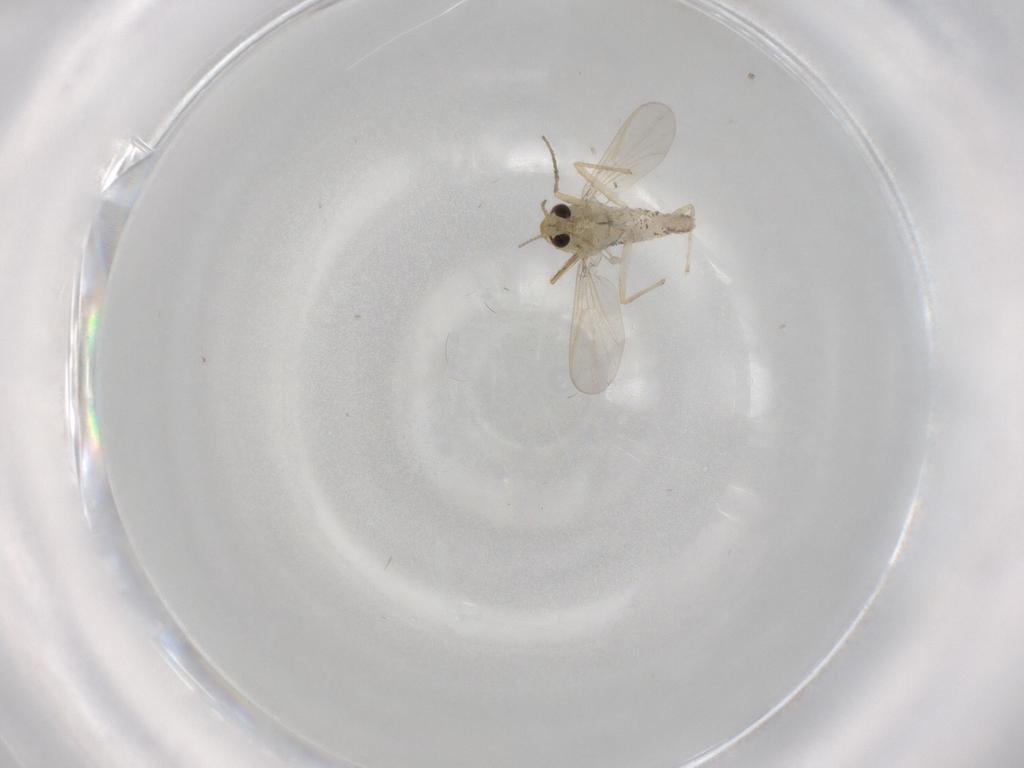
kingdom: Animalia
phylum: Arthropoda
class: Insecta
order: Diptera
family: Chironomidae
